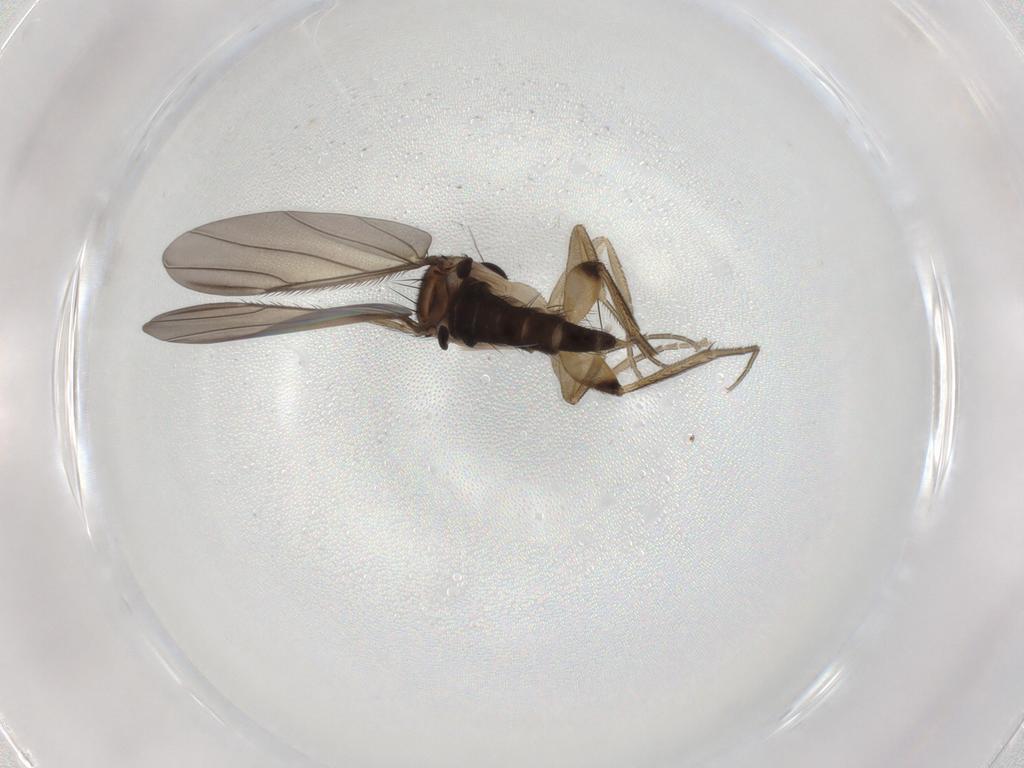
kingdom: Animalia
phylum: Arthropoda
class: Insecta
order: Diptera
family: Phoridae
